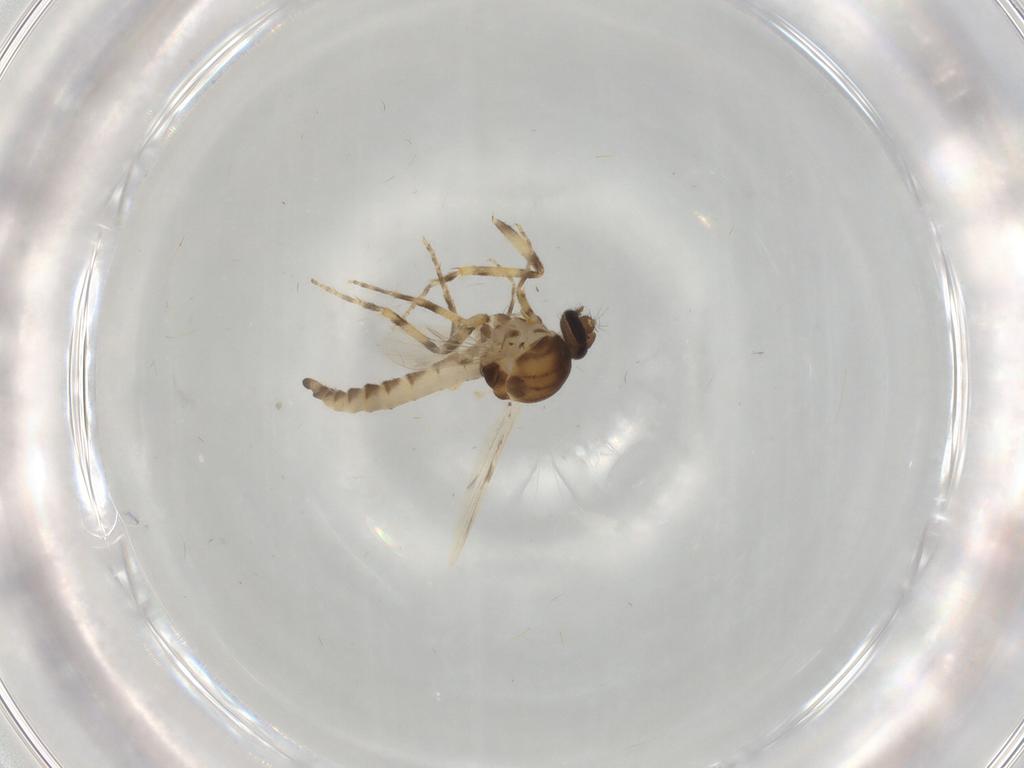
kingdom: Animalia
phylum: Arthropoda
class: Insecta
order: Diptera
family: Ceratopogonidae
